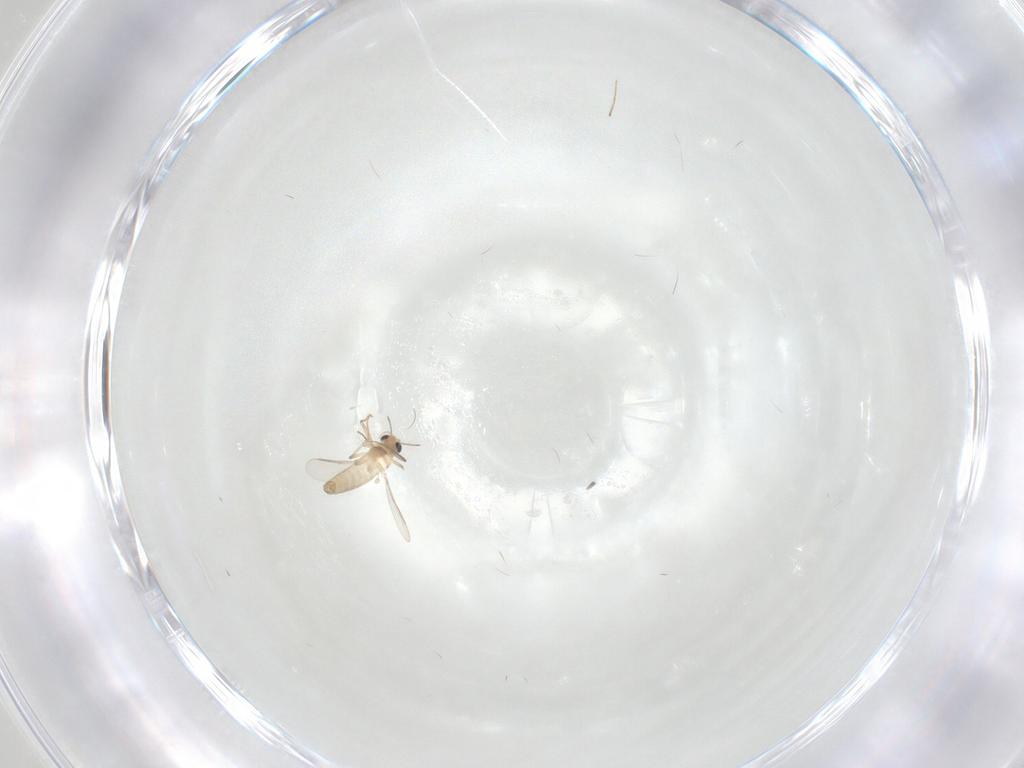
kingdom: Animalia
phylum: Arthropoda
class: Insecta
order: Diptera
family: Chironomidae
